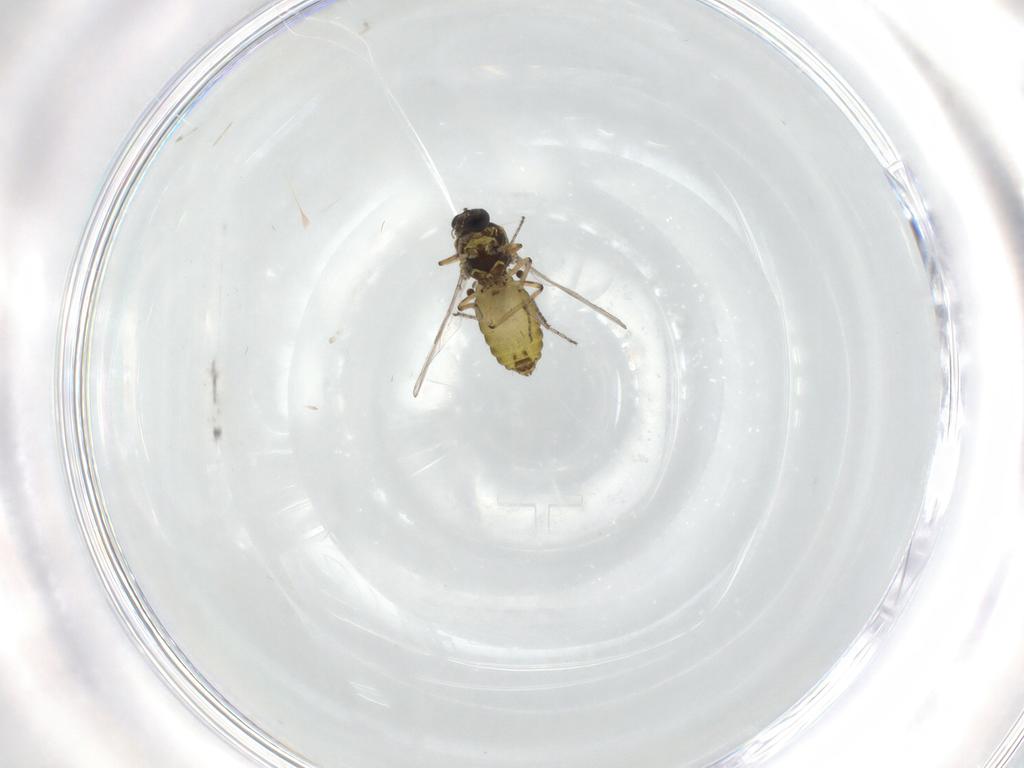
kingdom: Animalia
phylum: Arthropoda
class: Insecta
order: Diptera
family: Ceratopogonidae
